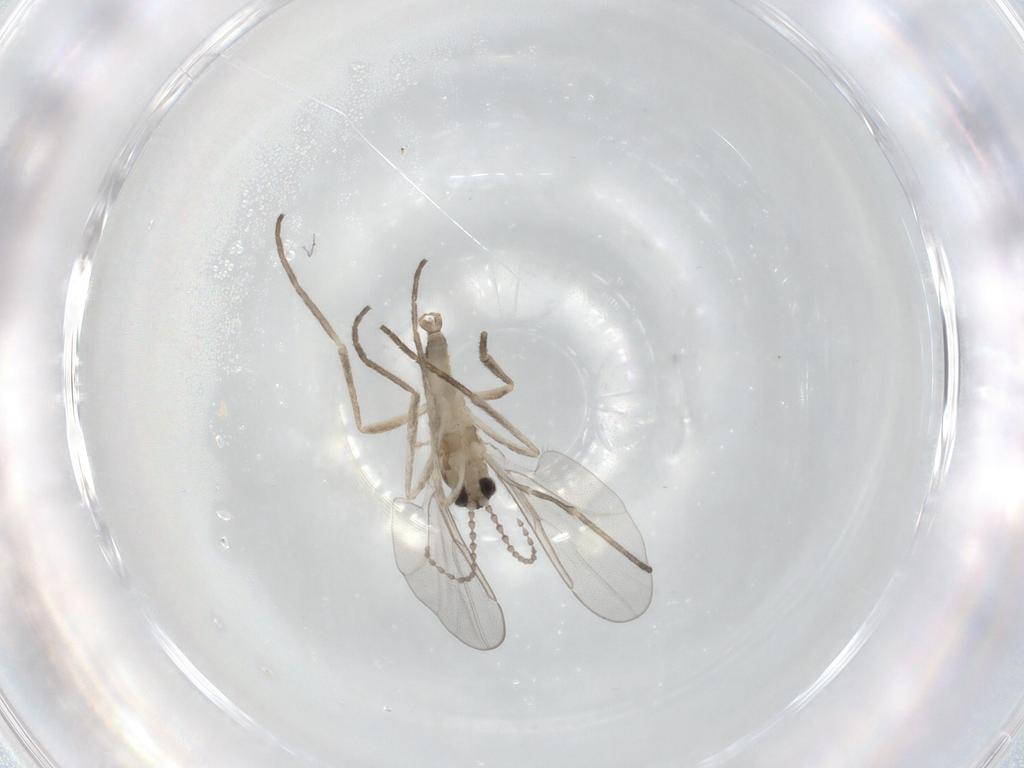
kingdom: Animalia
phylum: Arthropoda
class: Insecta
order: Diptera
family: Cecidomyiidae
